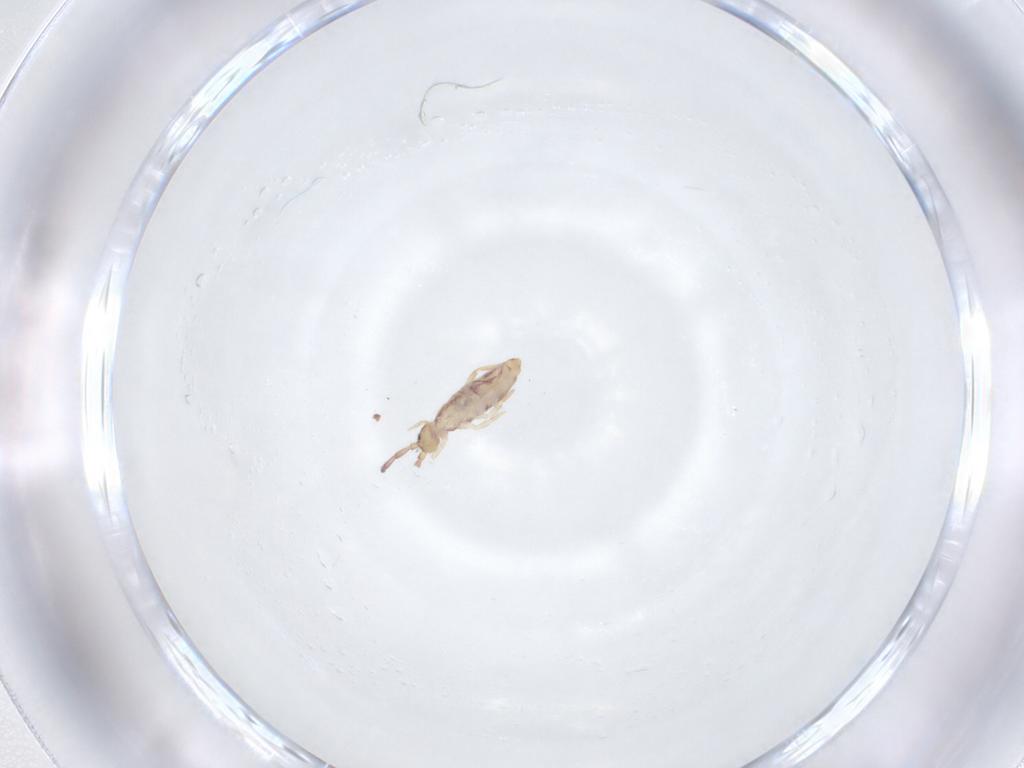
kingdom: Animalia
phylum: Arthropoda
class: Collembola
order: Entomobryomorpha
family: Entomobryidae
